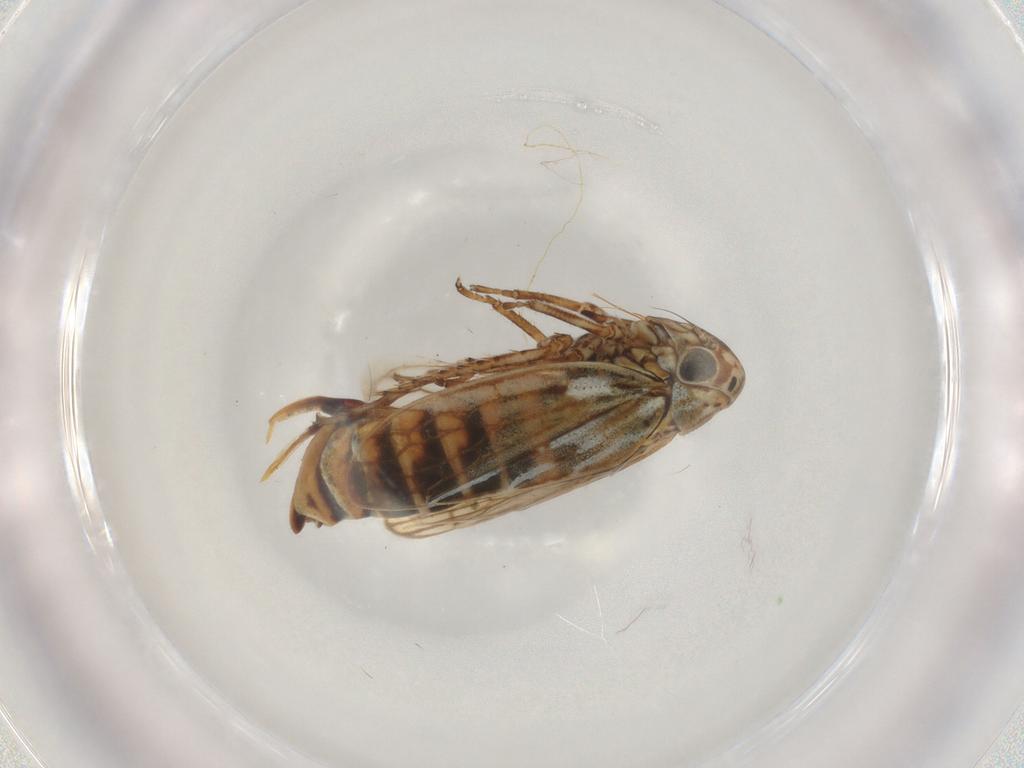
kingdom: Animalia
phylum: Arthropoda
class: Insecta
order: Hemiptera
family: Cicadellidae
